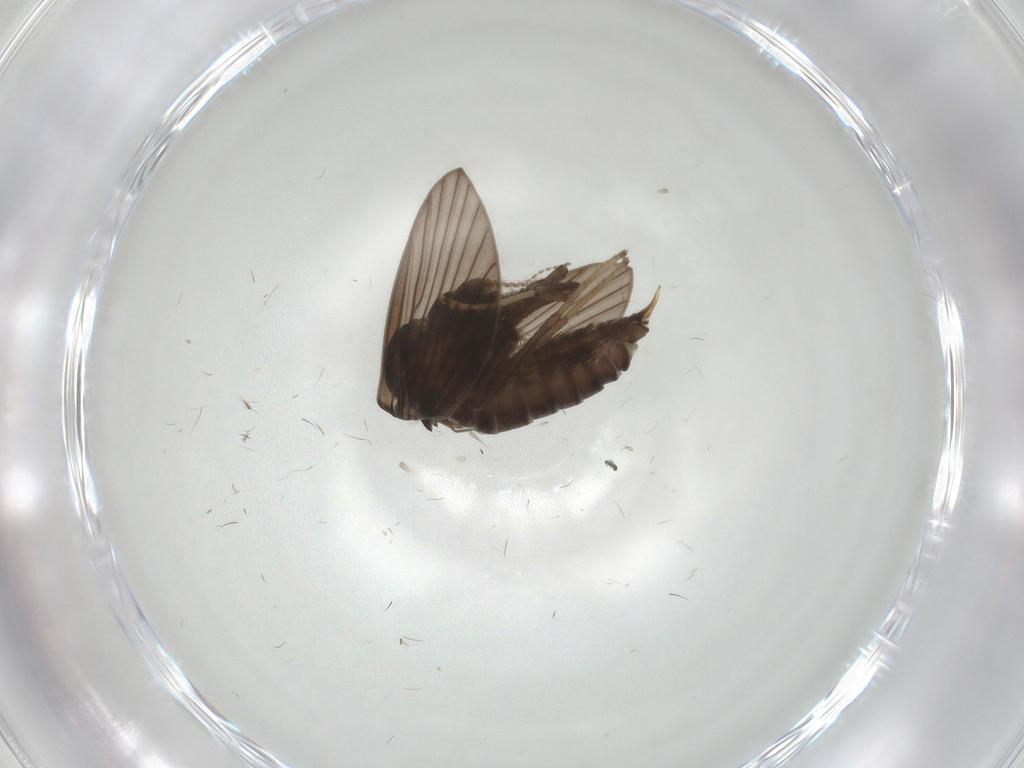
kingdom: Animalia
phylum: Arthropoda
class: Insecta
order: Diptera
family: Psychodidae
